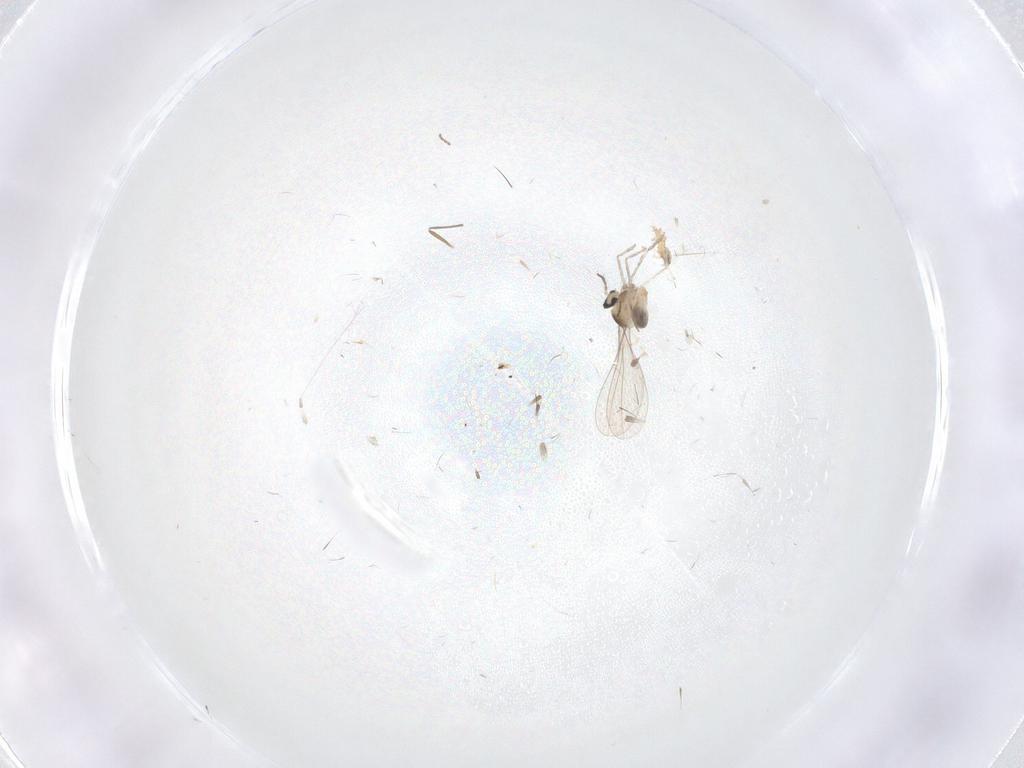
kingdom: Animalia
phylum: Arthropoda
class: Insecta
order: Diptera
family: Cecidomyiidae
